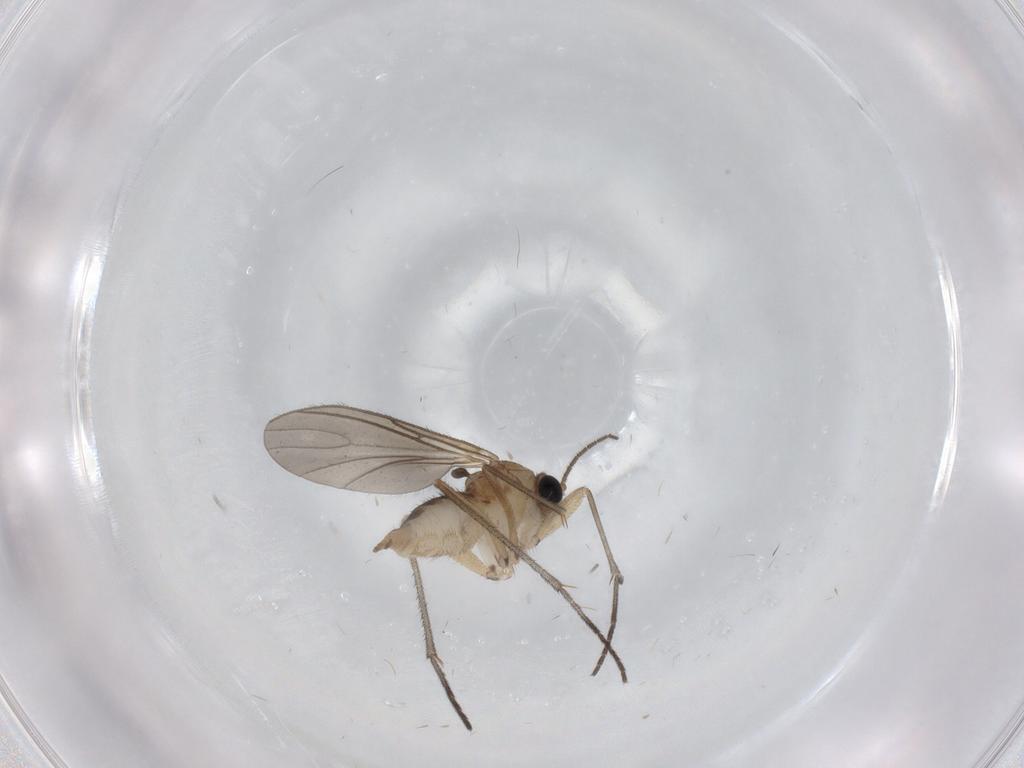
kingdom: Animalia
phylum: Arthropoda
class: Insecta
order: Diptera
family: Sciaridae
